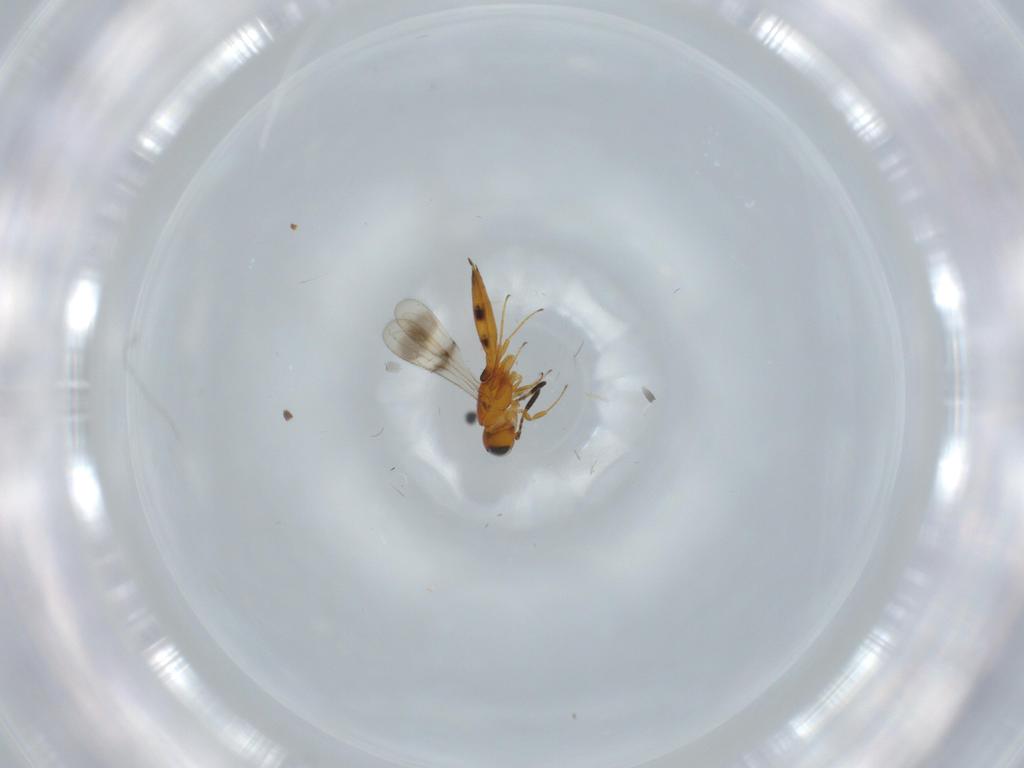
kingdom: Animalia
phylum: Arthropoda
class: Insecta
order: Hymenoptera
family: Scelionidae
